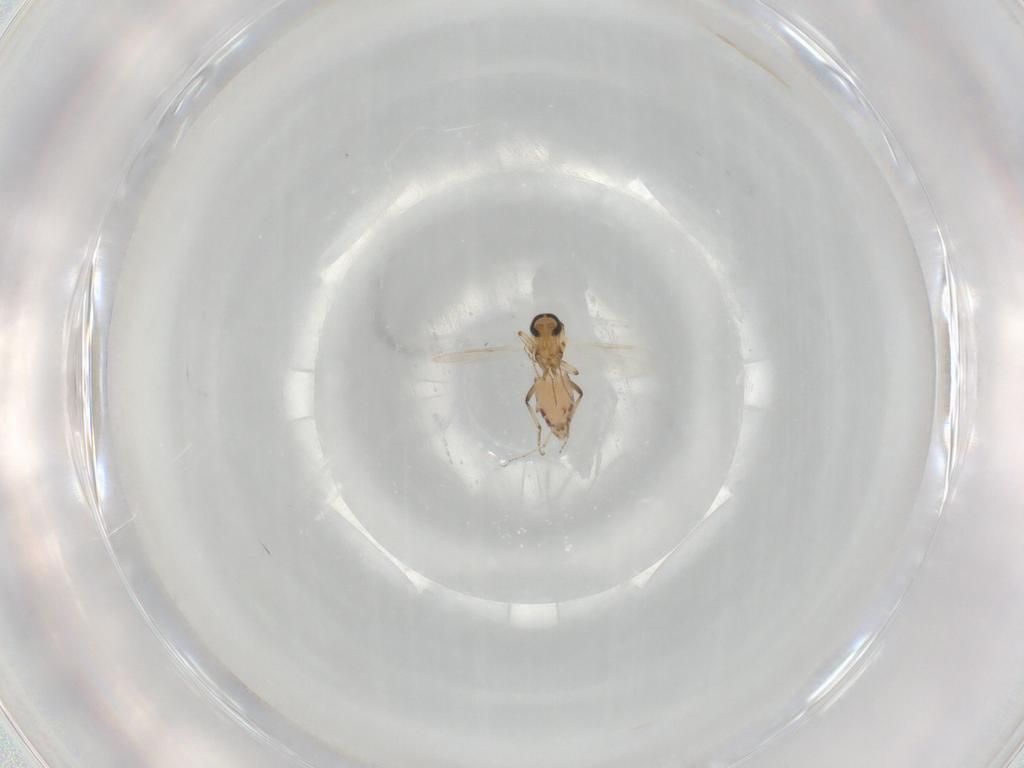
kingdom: Animalia
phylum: Arthropoda
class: Insecta
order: Diptera
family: Ceratopogonidae
